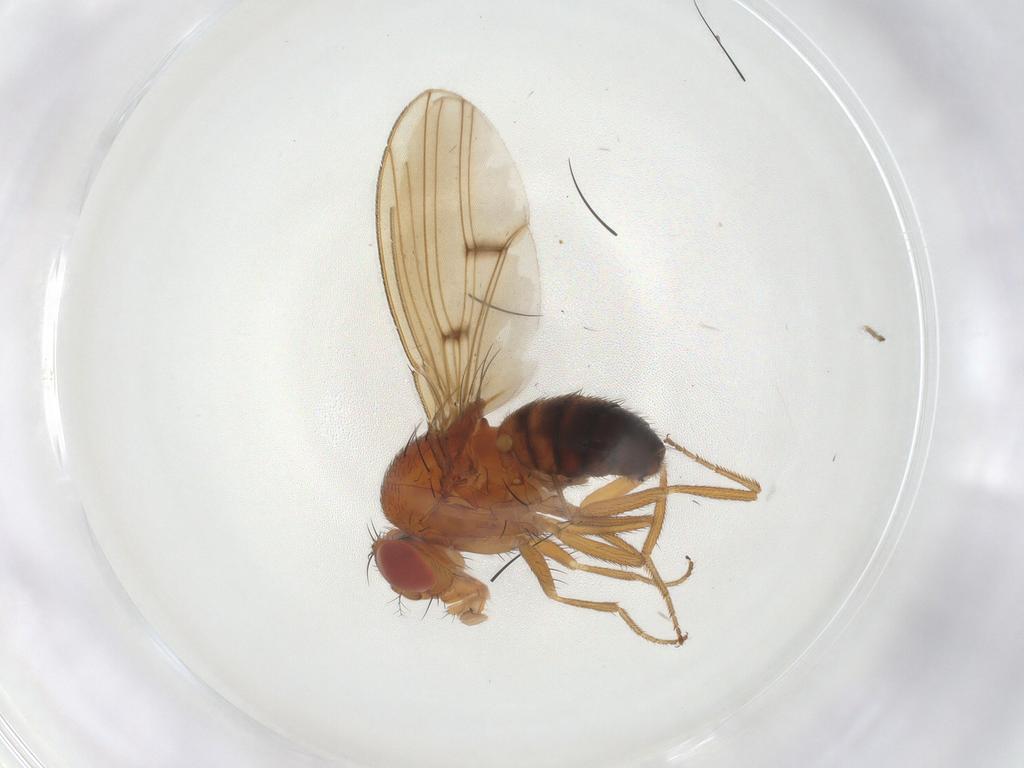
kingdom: Animalia
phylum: Arthropoda
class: Insecta
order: Diptera
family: Drosophilidae
